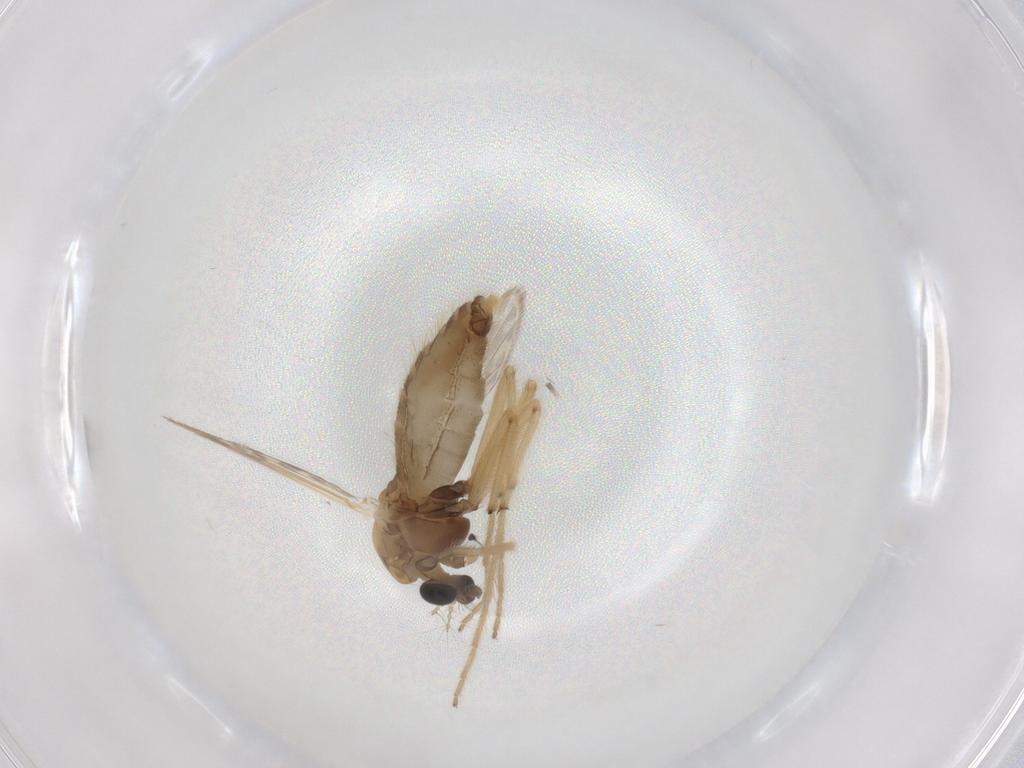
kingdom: Animalia
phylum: Arthropoda
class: Insecta
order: Diptera
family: Chironomidae
